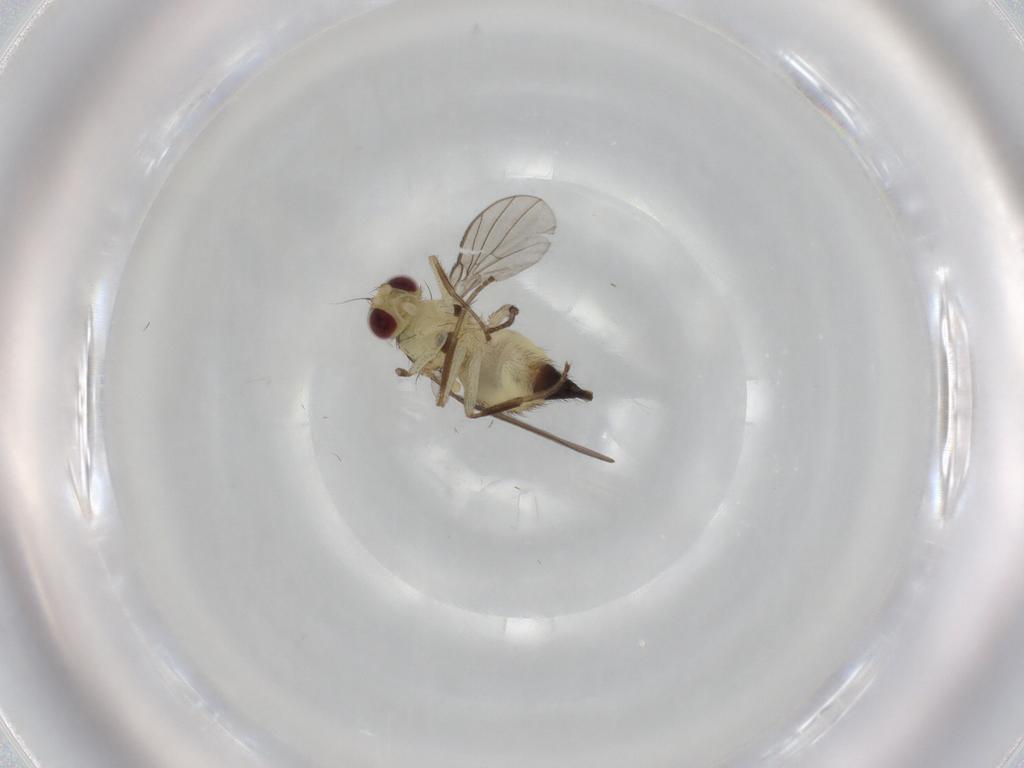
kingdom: Animalia
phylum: Arthropoda
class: Insecta
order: Diptera
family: Agromyzidae
